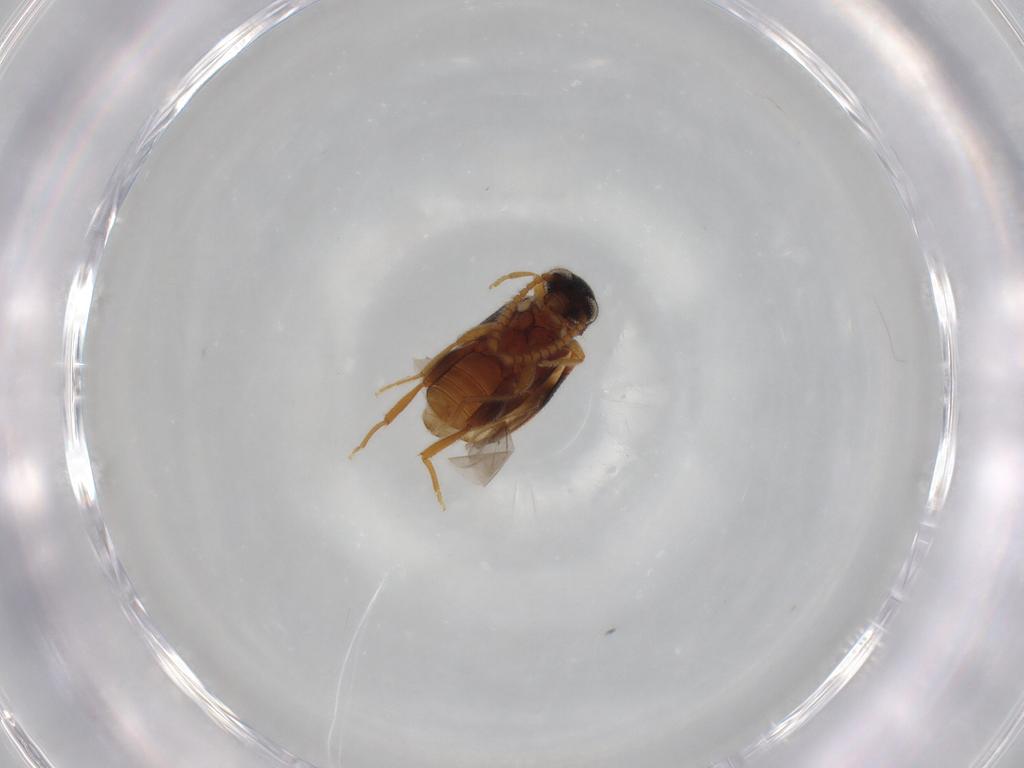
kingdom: Animalia
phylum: Arthropoda
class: Insecta
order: Coleoptera
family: Aderidae
